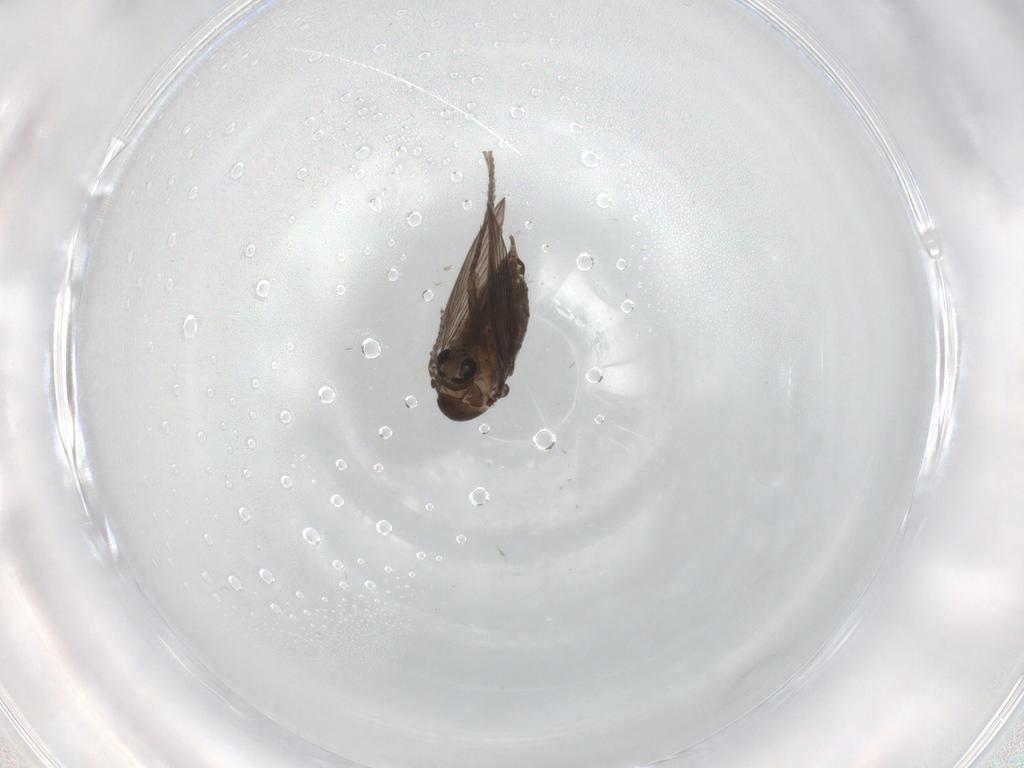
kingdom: Animalia
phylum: Arthropoda
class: Insecta
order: Diptera
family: Psychodidae
